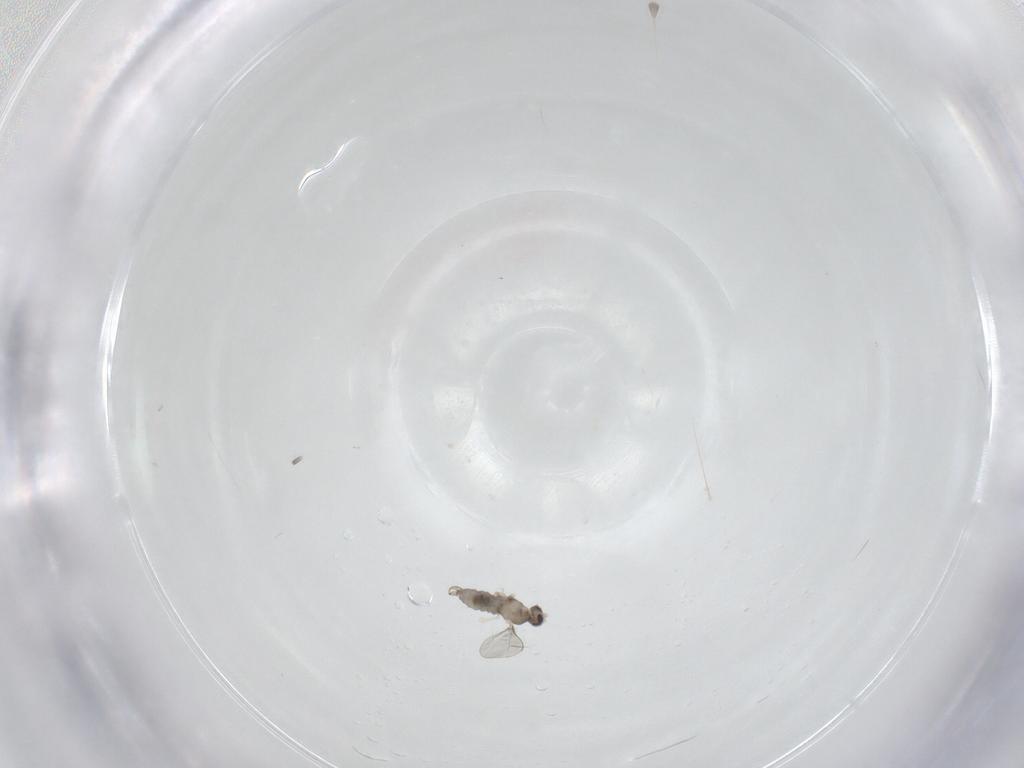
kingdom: Animalia
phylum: Arthropoda
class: Insecta
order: Diptera
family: Cecidomyiidae
